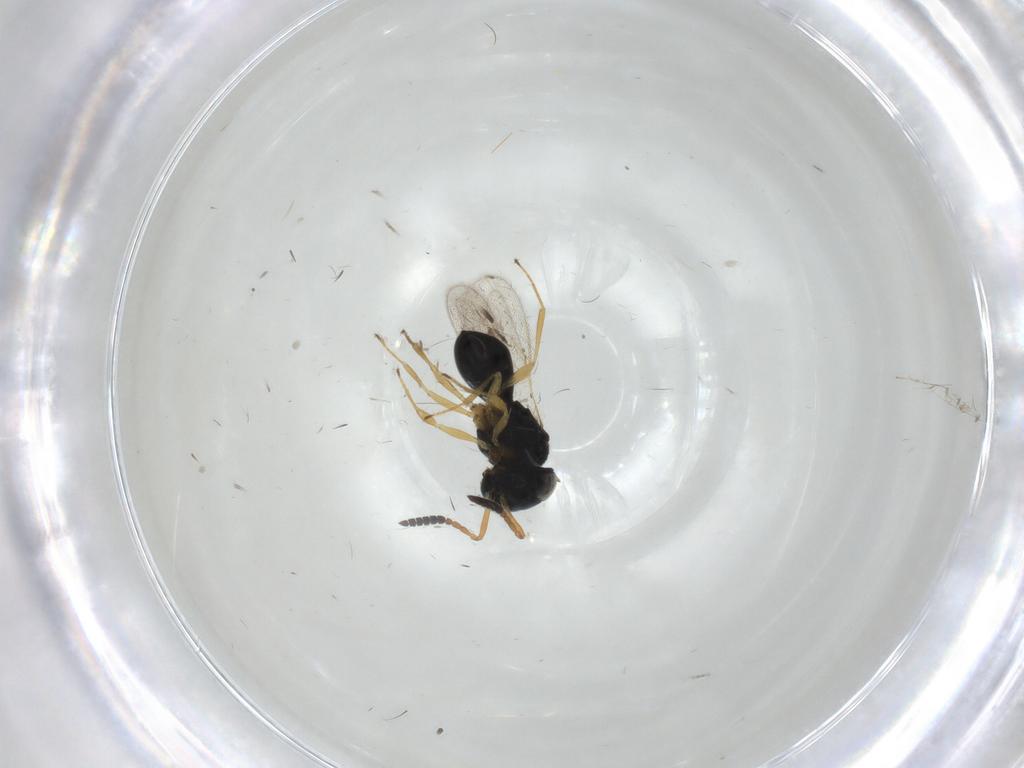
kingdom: Animalia
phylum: Arthropoda
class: Insecta
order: Hymenoptera
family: Scelionidae
